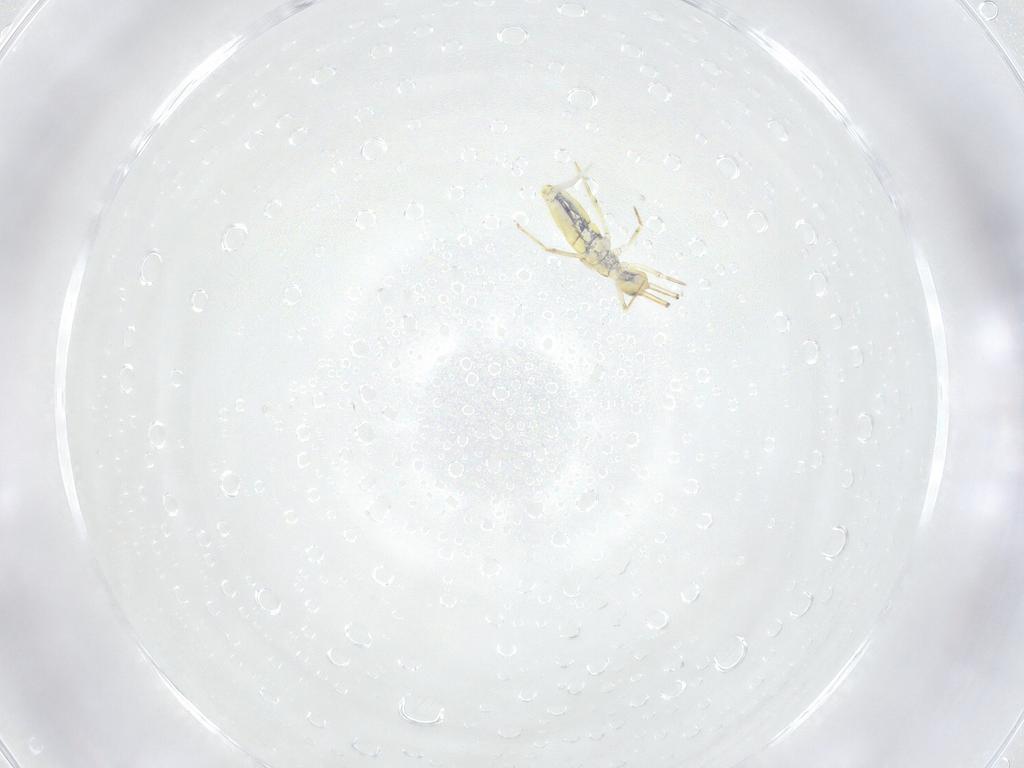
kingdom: Animalia
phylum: Arthropoda
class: Collembola
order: Entomobryomorpha
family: Paronellidae
